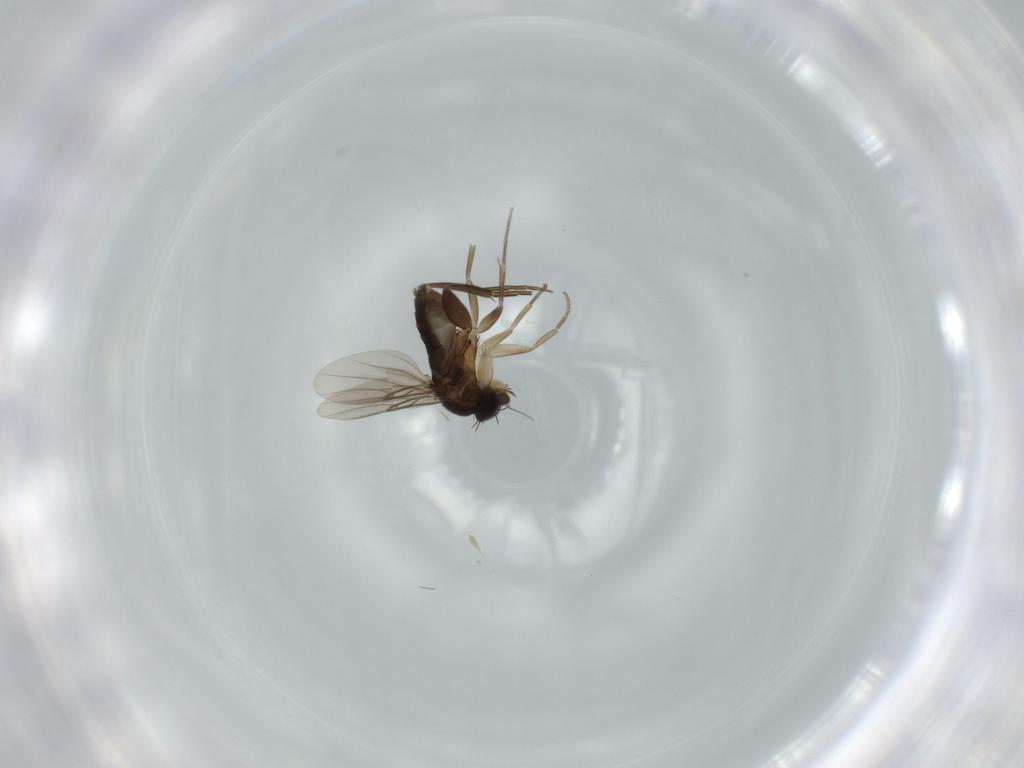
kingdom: Animalia
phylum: Arthropoda
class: Insecta
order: Diptera
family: Phoridae
